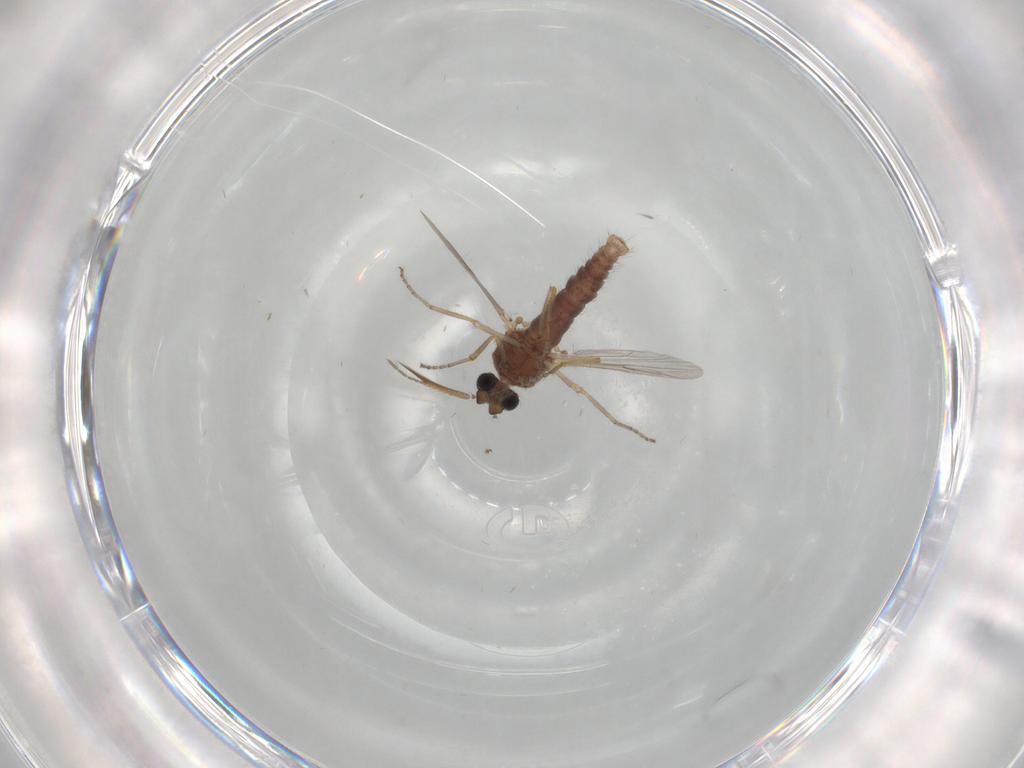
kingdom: Animalia
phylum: Arthropoda
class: Insecta
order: Diptera
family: Ceratopogonidae
